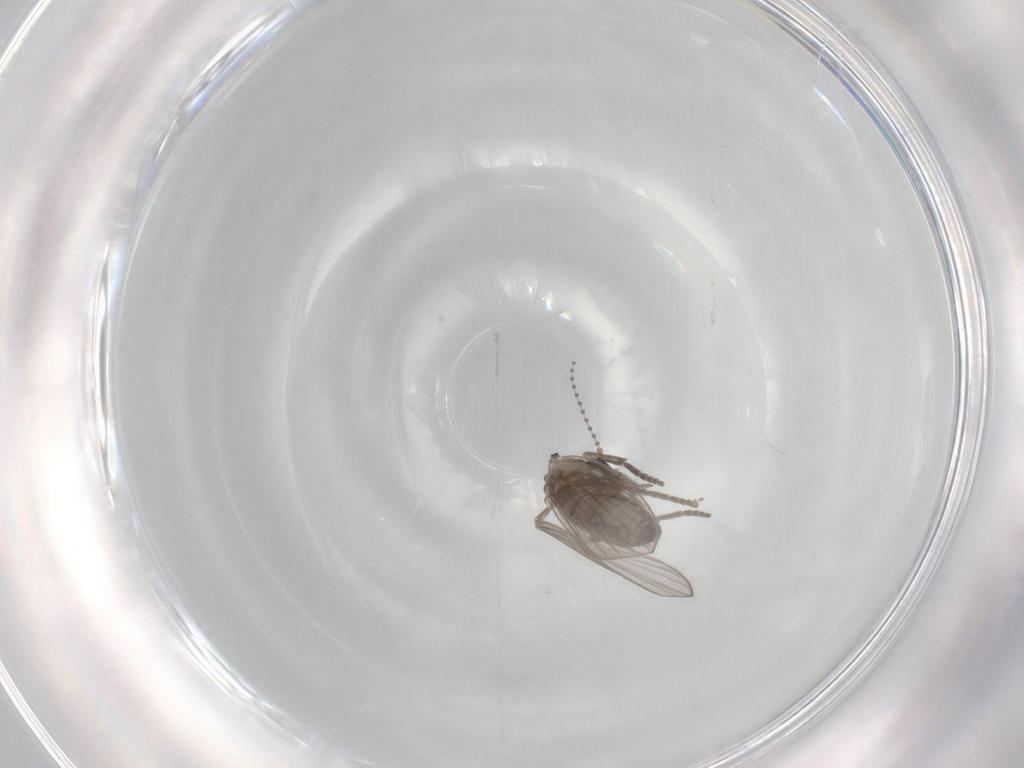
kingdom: Animalia
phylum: Arthropoda
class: Insecta
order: Diptera
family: Psychodidae
